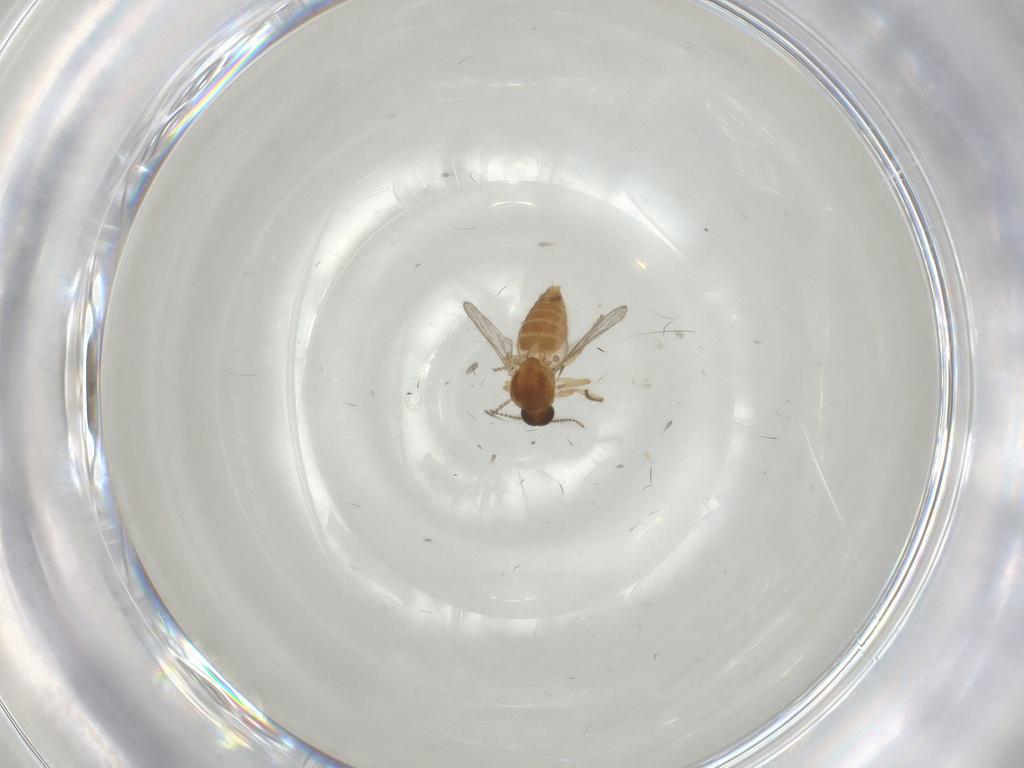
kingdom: Animalia
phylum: Arthropoda
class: Insecta
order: Diptera
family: Ceratopogonidae
